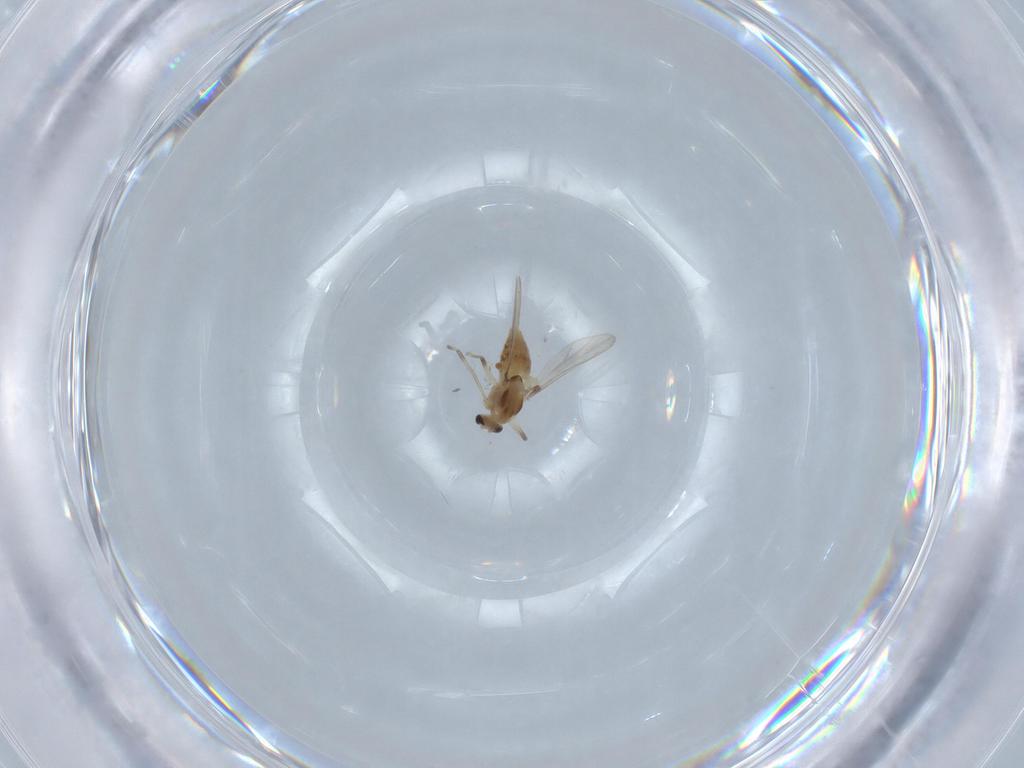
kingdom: Animalia
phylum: Arthropoda
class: Insecta
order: Diptera
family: Chironomidae
